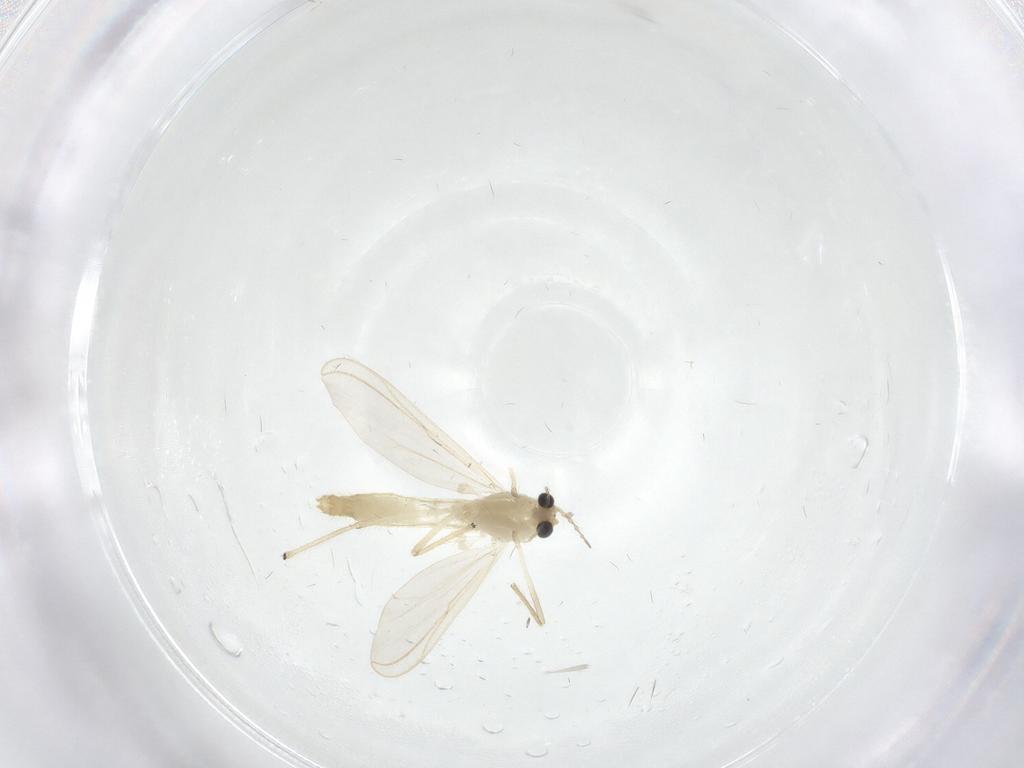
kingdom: Animalia
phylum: Arthropoda
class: Insecta
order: Diptera
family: Chironomidae
